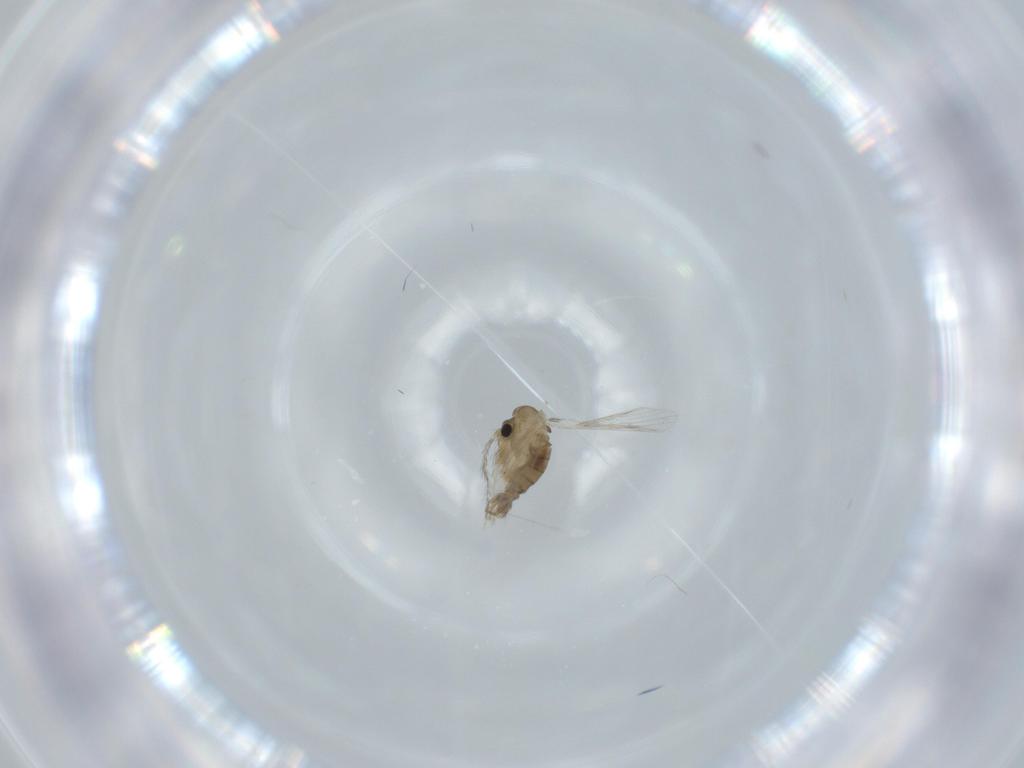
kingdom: Animalia
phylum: Arthropoda
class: Insecta
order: Diptera
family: Psychodidae
